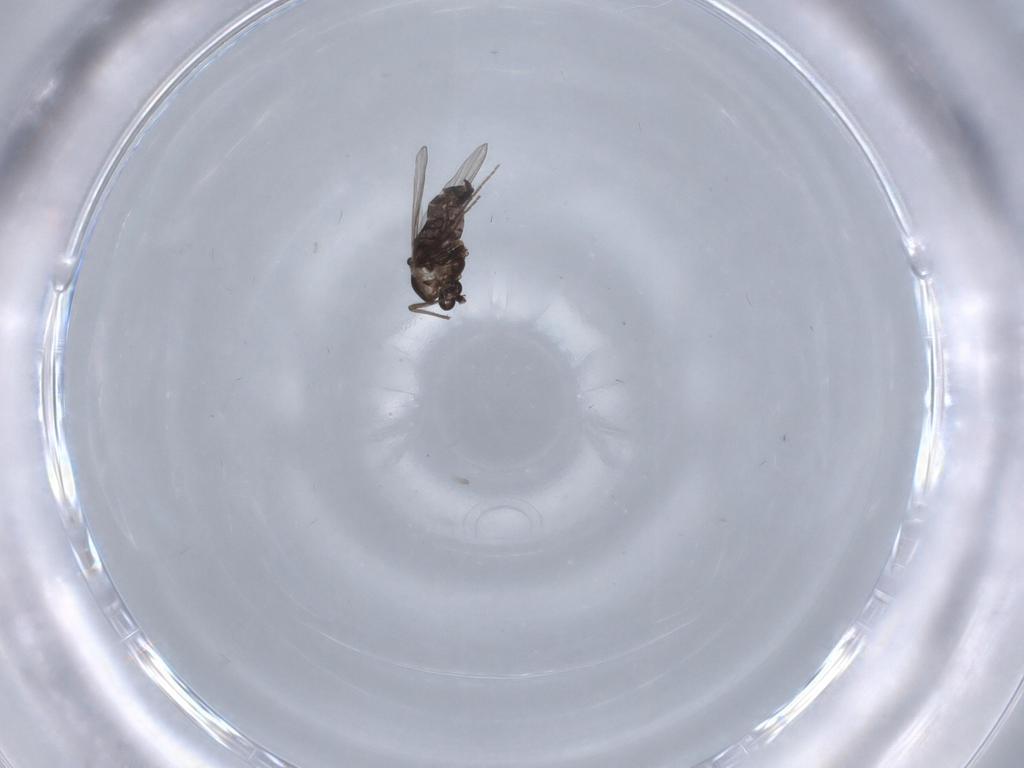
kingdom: Animalia
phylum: Arthropoda
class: Insecta
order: Diptera
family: Chironomidae
